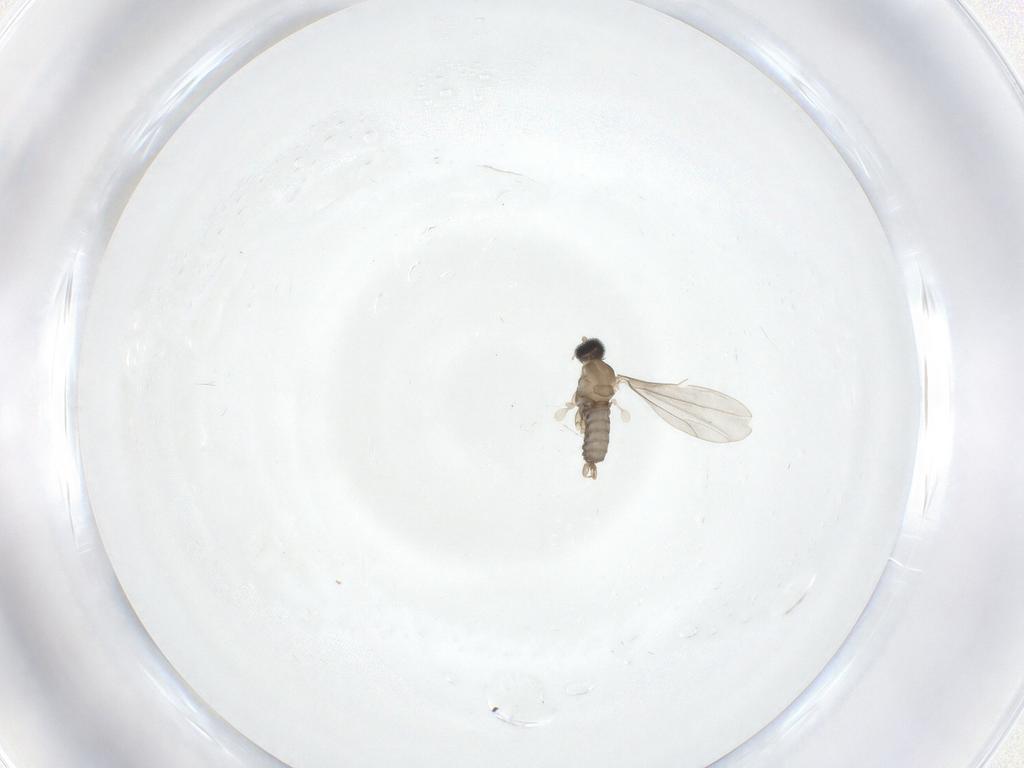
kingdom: Animalia
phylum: Arthropoda
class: Insecta
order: Diptera
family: Cecidomyiidae
